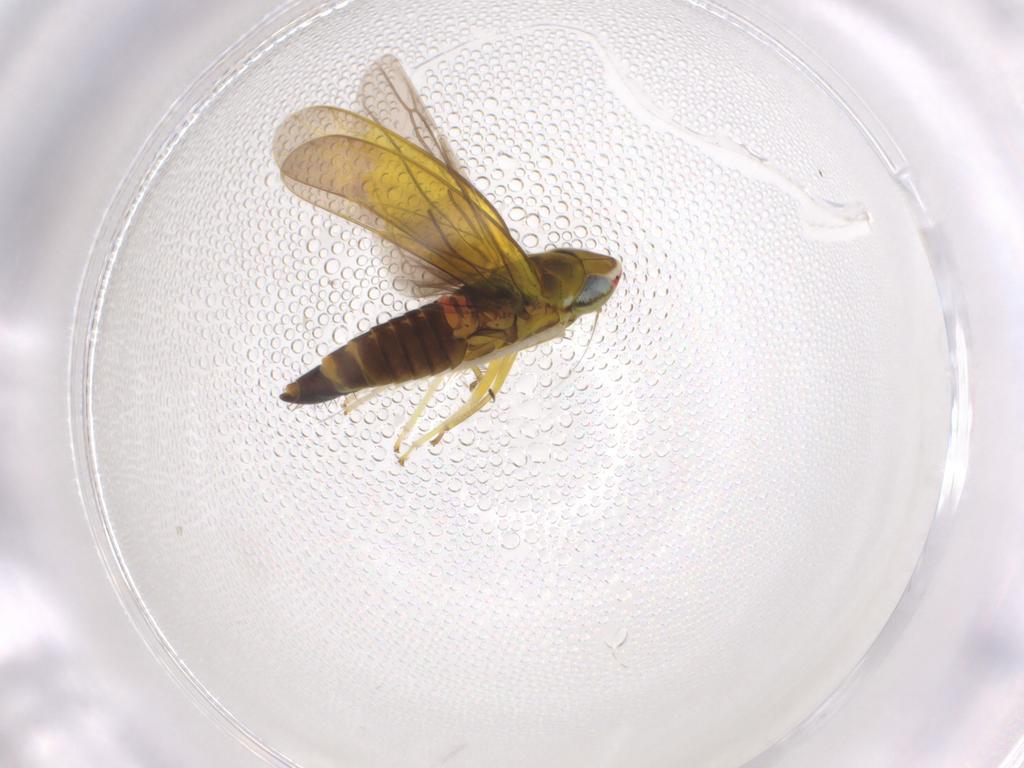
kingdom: Animalia
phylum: Arthropoda
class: Insecta
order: Hemiptera
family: Cicadellidae
